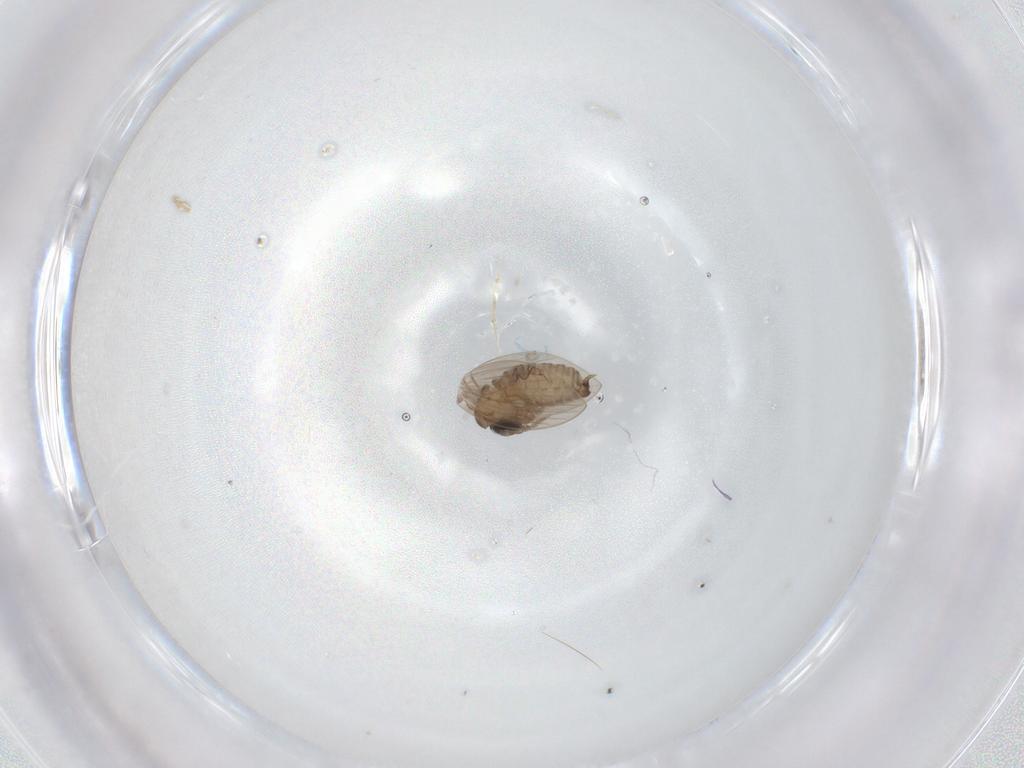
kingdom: Animalia
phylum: Arthropoda
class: Insecta
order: Diptera
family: Psychodidae
